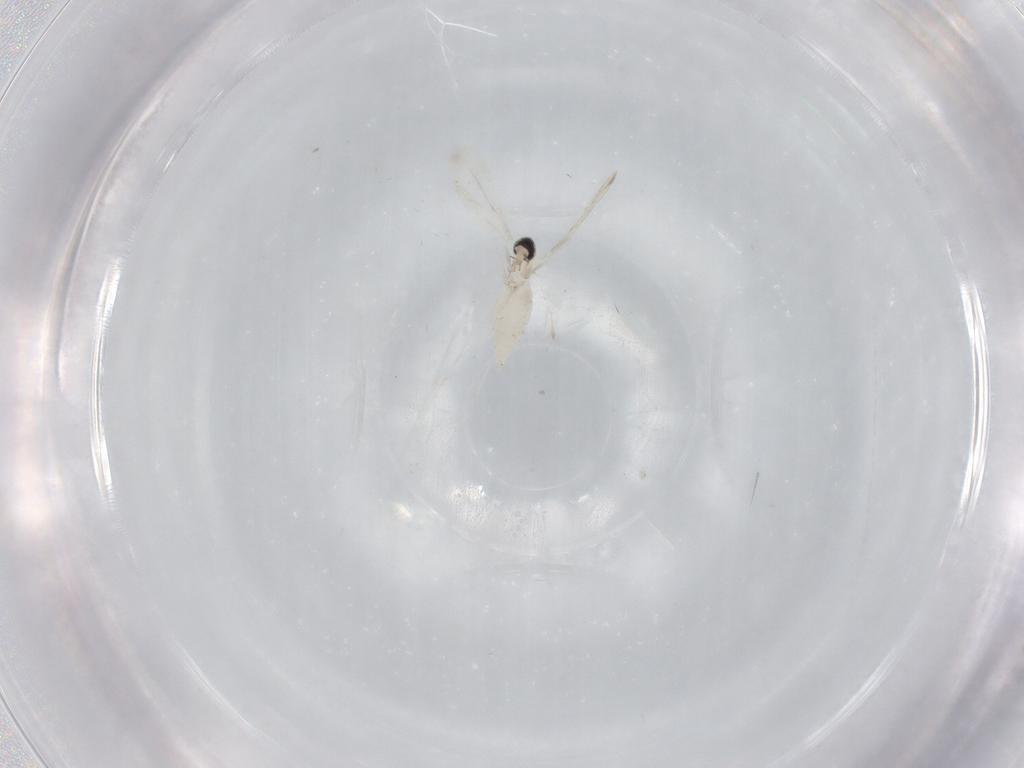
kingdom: Animalia
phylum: Arthropoda
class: Insecta
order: Diptera
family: Cecidomyiidae
